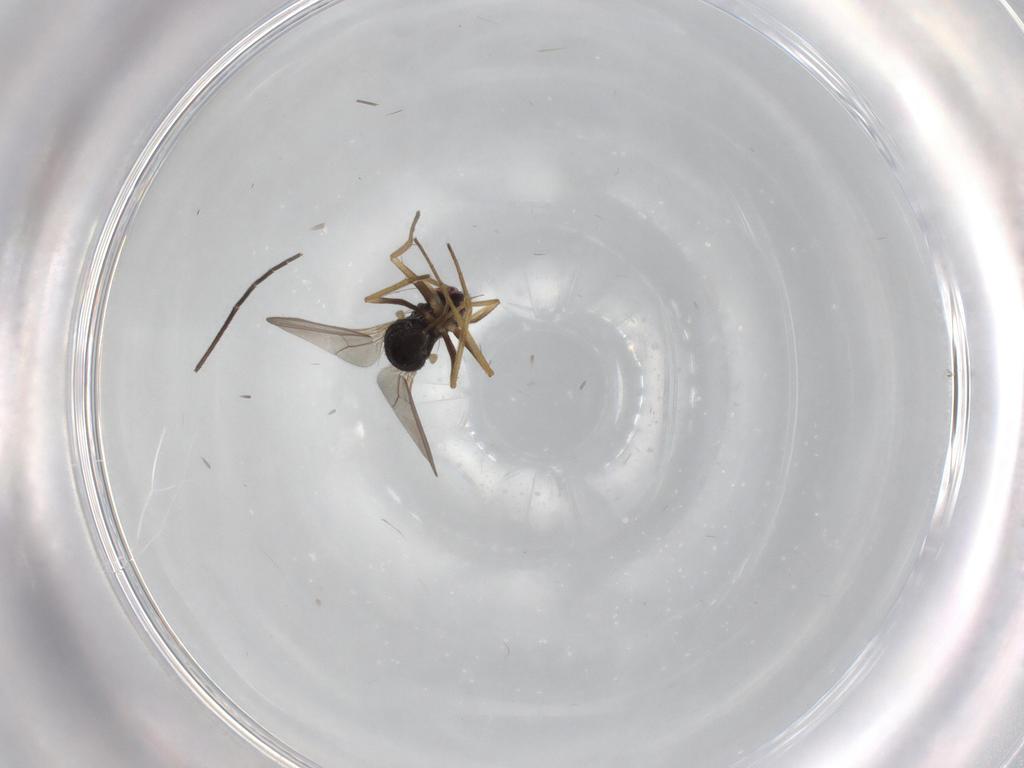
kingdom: Animalia
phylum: Arthropoda
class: Insecta
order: Diptera
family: Dolichopodidae
